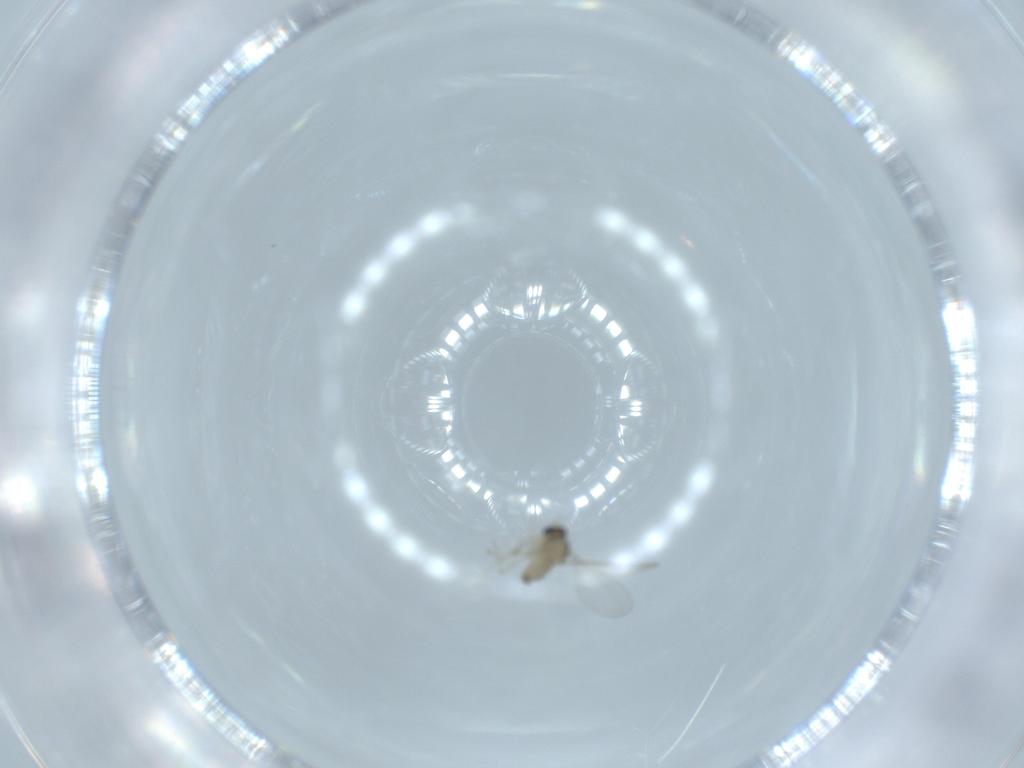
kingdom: Animalia
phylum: Arthropoda
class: Insecta
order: Diptera
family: Cecidomyiidae
